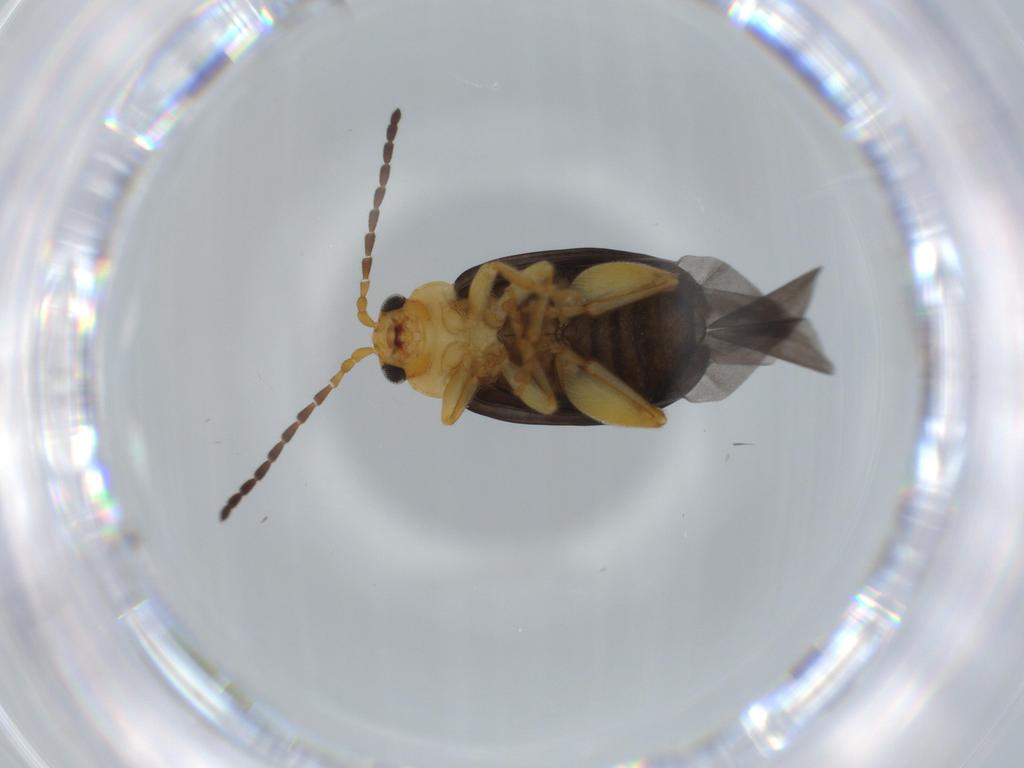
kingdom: Animalia
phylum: Arthropoda
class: Insecta
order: Coleoptera
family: Chrysomelidae
